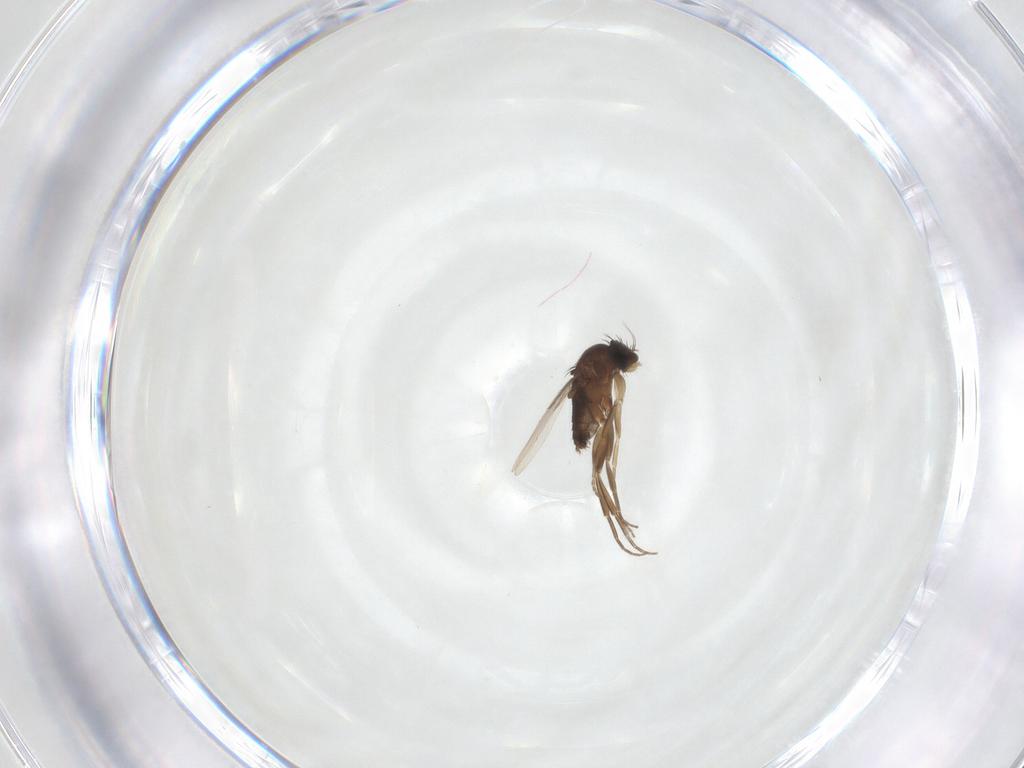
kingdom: Animalia
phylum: Arthropoda
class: Insecta
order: Diptera
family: Phoridae
